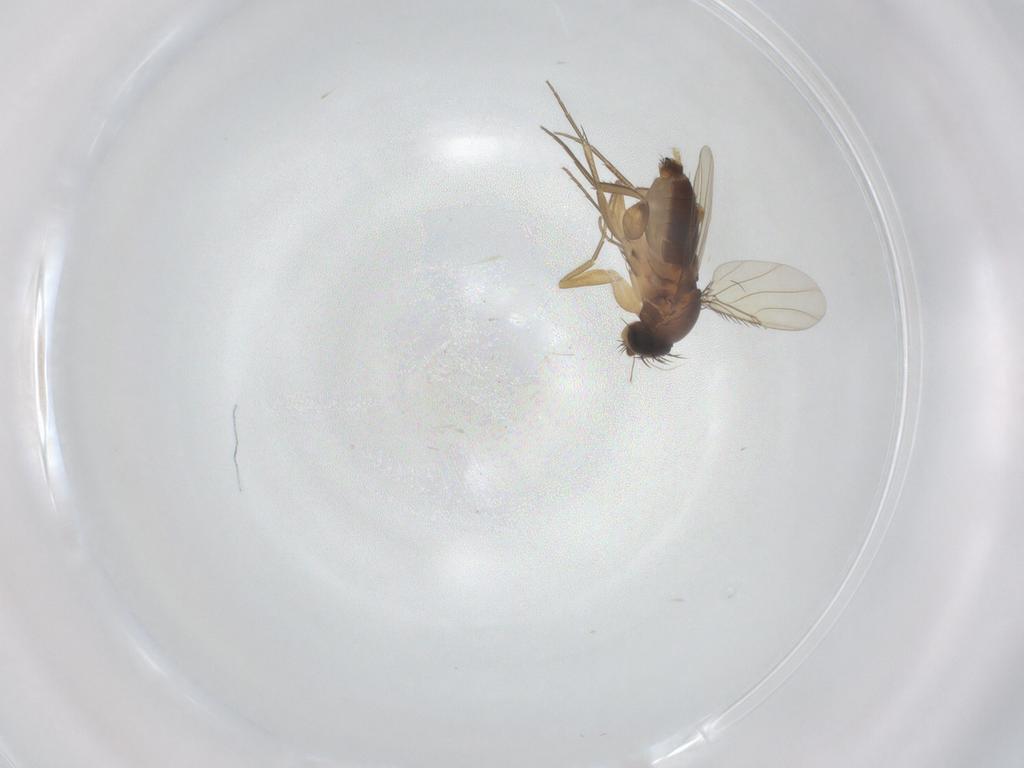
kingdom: Animalia
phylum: Arthropoda
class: Insecta
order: Diptera
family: Phoridae
